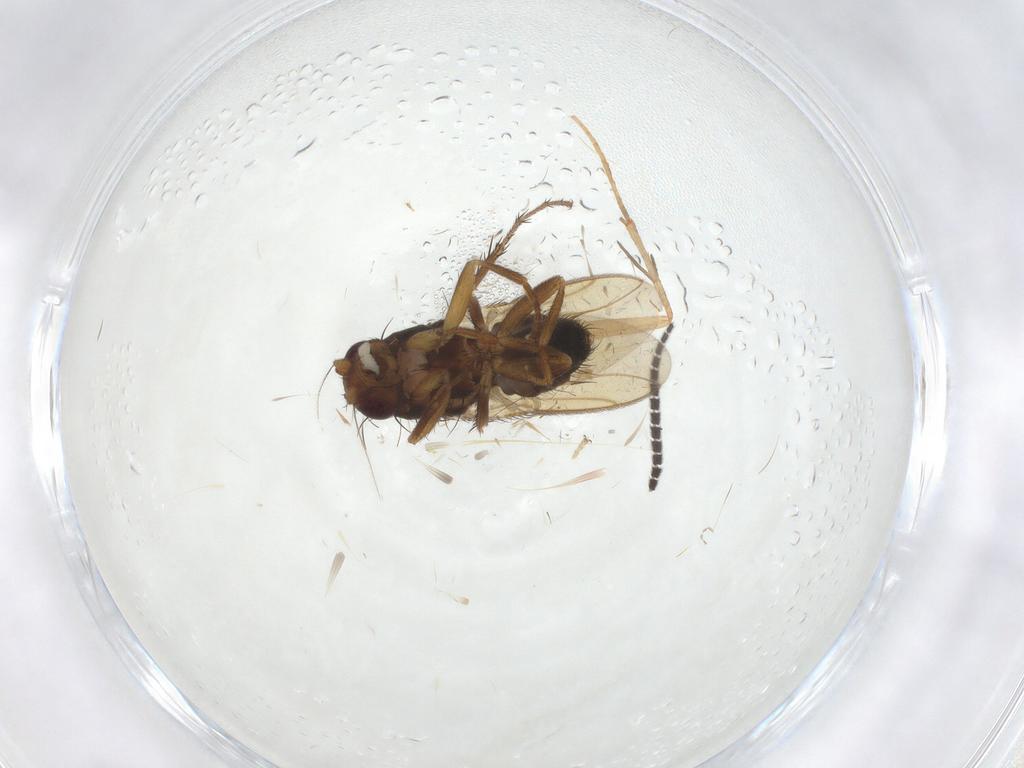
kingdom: Animalia
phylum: Arthropoda
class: Insecta
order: Diptera
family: Sphaeroceridae
